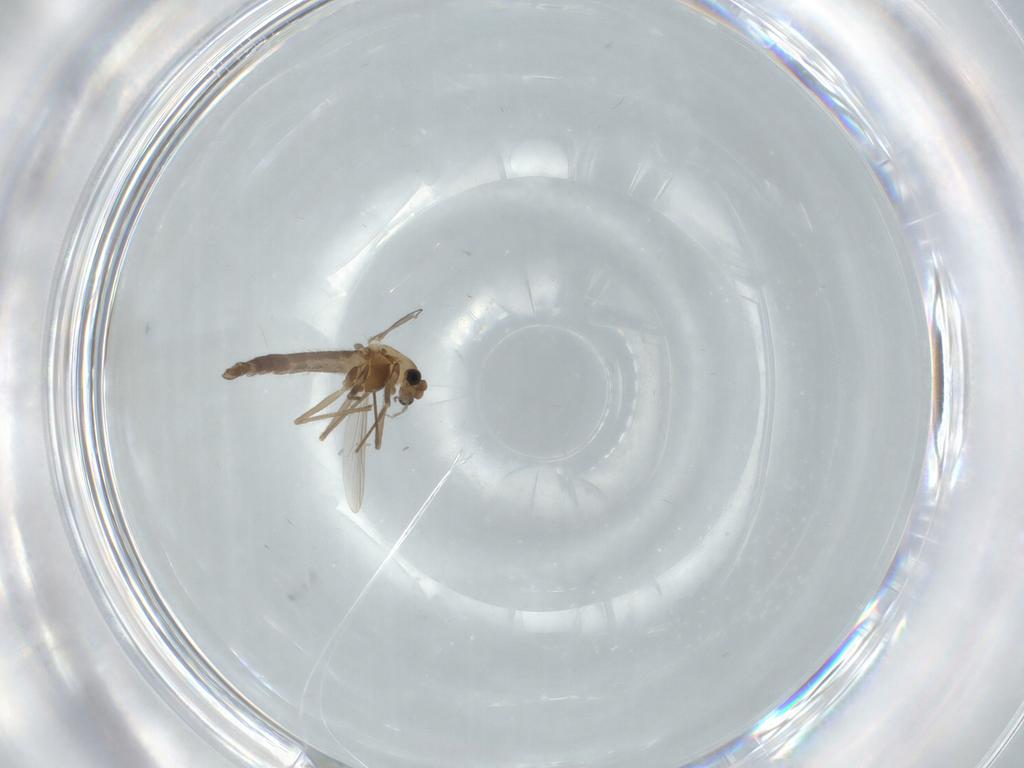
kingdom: Animalia
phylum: Arthropoda
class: Insecta
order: Diptera
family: Chironomidae
